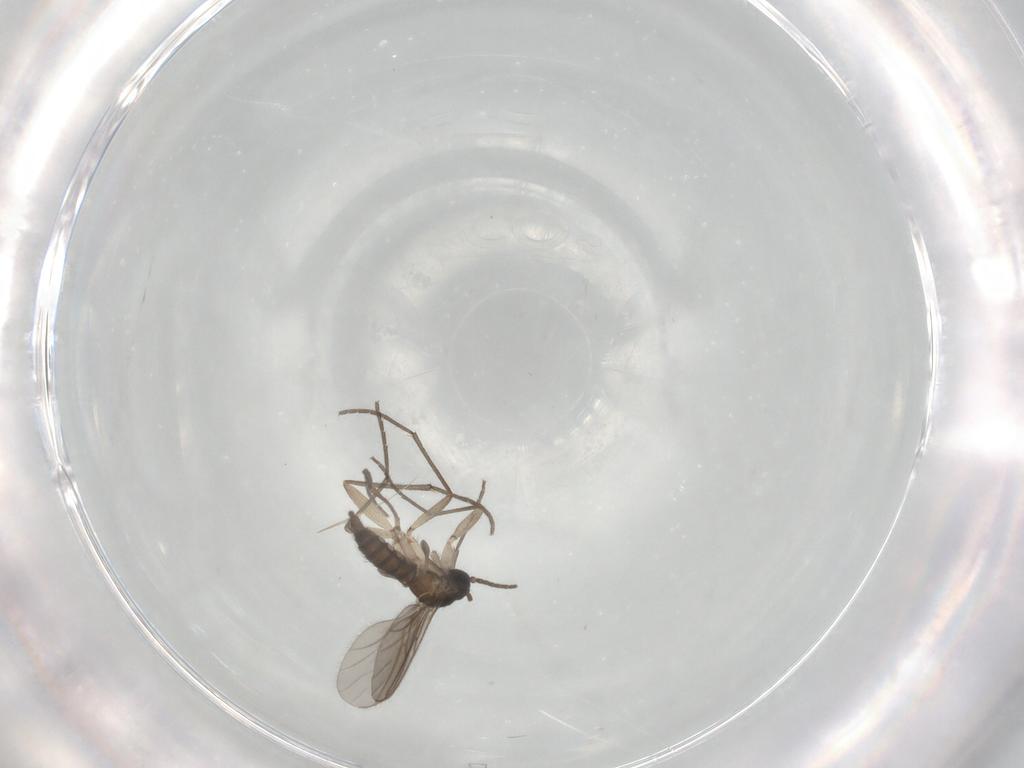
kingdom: Animalia
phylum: Arthropoda
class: Insecta
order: Diptera
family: Sciaridae
